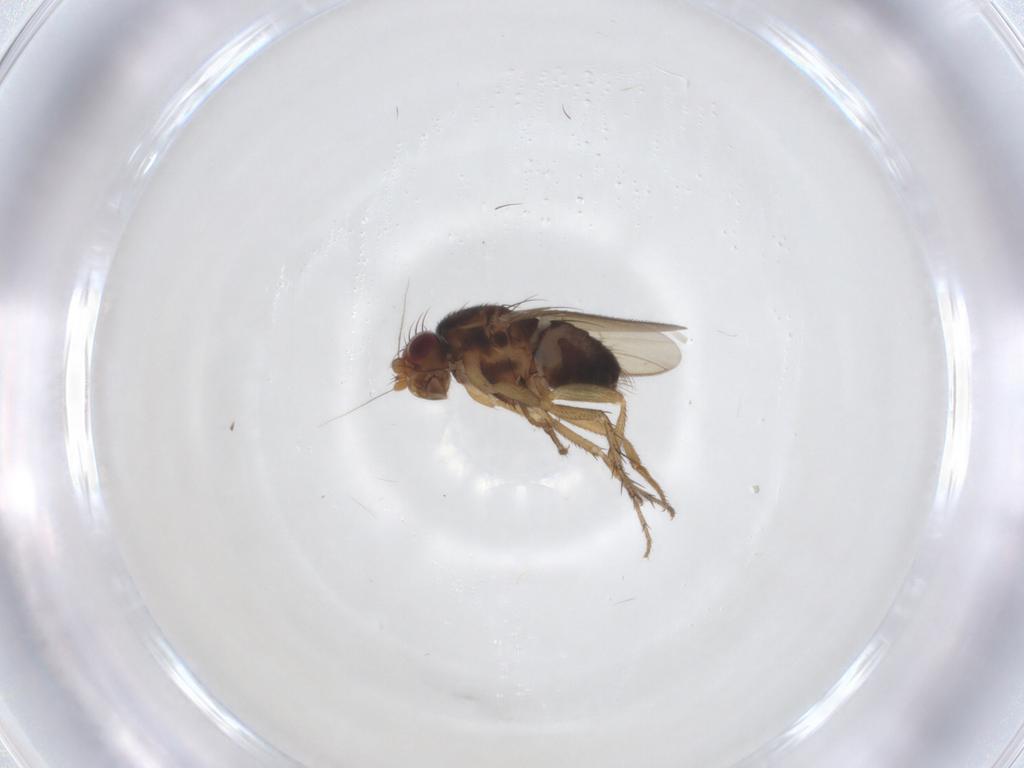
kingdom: Animalia
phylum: Arthropoda
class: Insecta
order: Diptera
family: Sphaeroceridae
